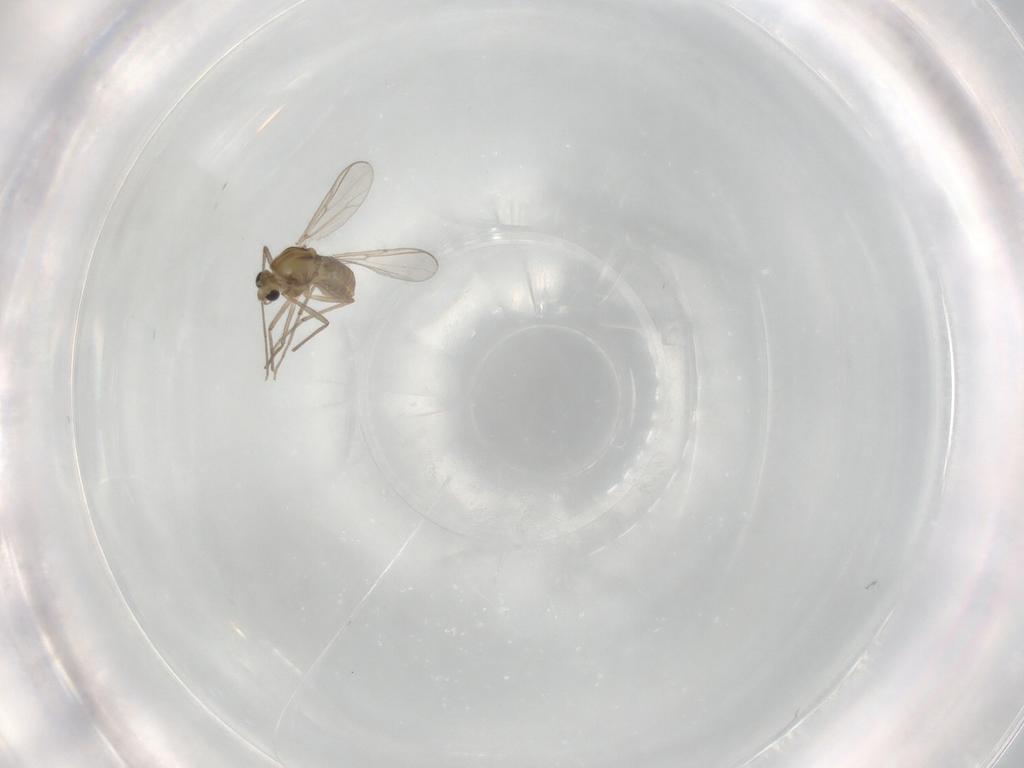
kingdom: Animalia
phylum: Arthropoda
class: Insecta
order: Diptera
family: Chironomidae
